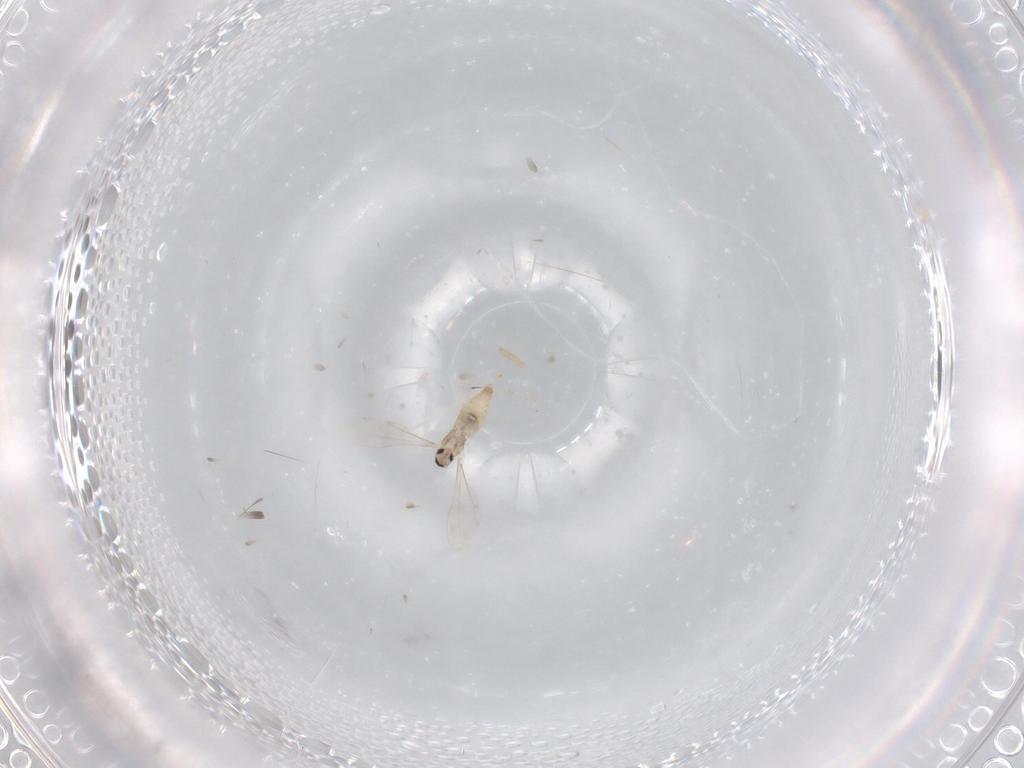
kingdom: Animalia
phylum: Arthropoda
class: Insecta
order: Diptera
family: Cecidomyiidae
